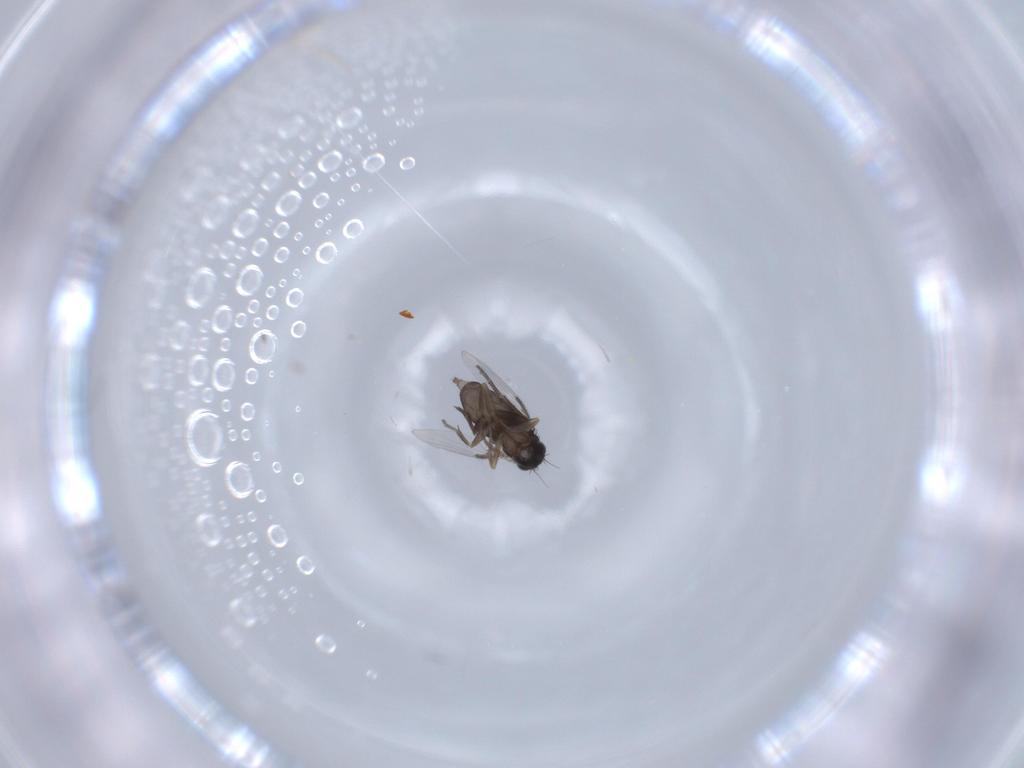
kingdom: Animalia
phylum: Arthropoda
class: Insecta
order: Diptera
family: Phoridae
